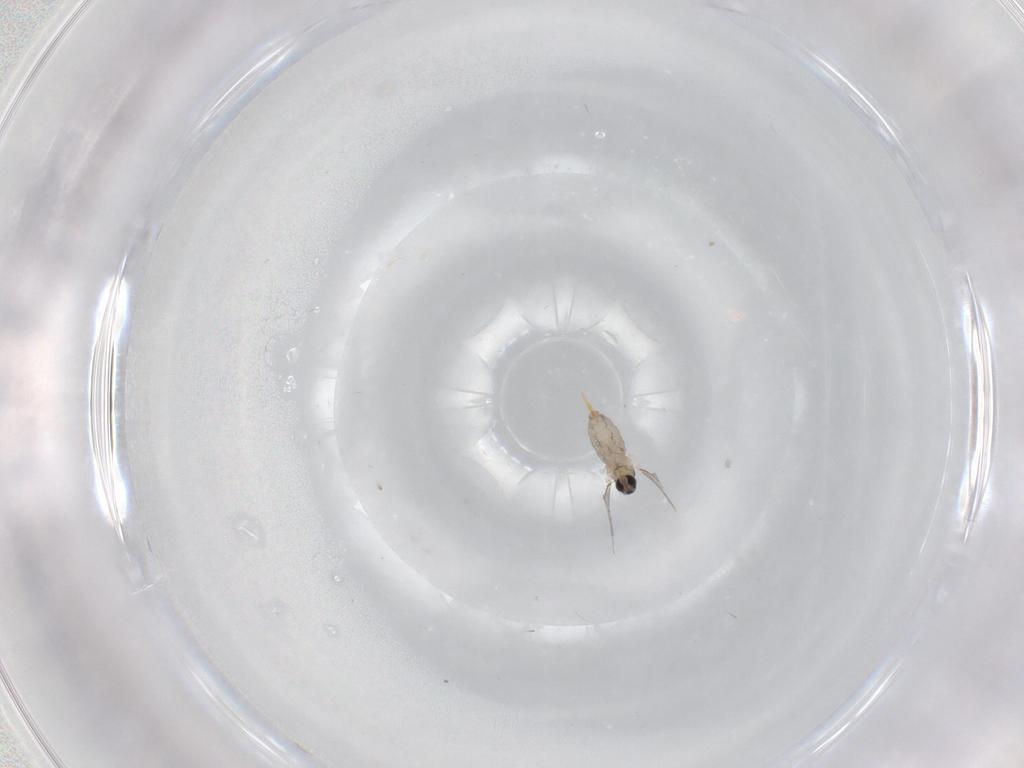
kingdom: Animalia
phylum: Arthropoda
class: Insecta
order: Diptera
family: Cecidomyiidae
